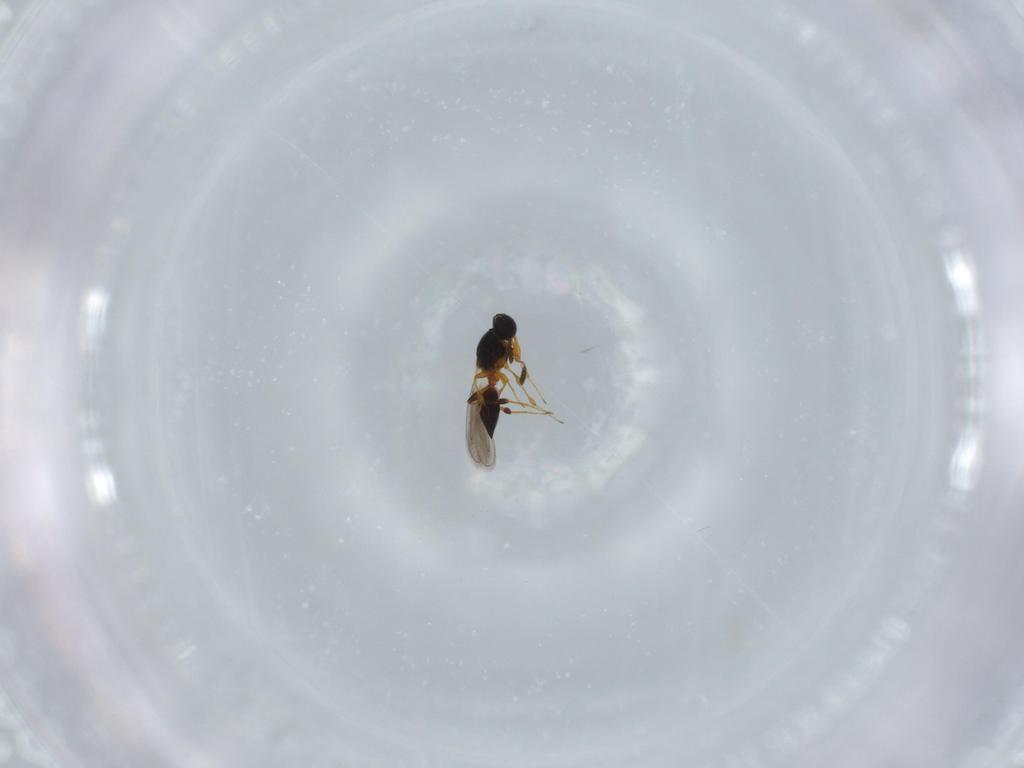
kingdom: Animalia
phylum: Arthropoda
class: Insecta
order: Hymenoptera
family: Platygastridae
